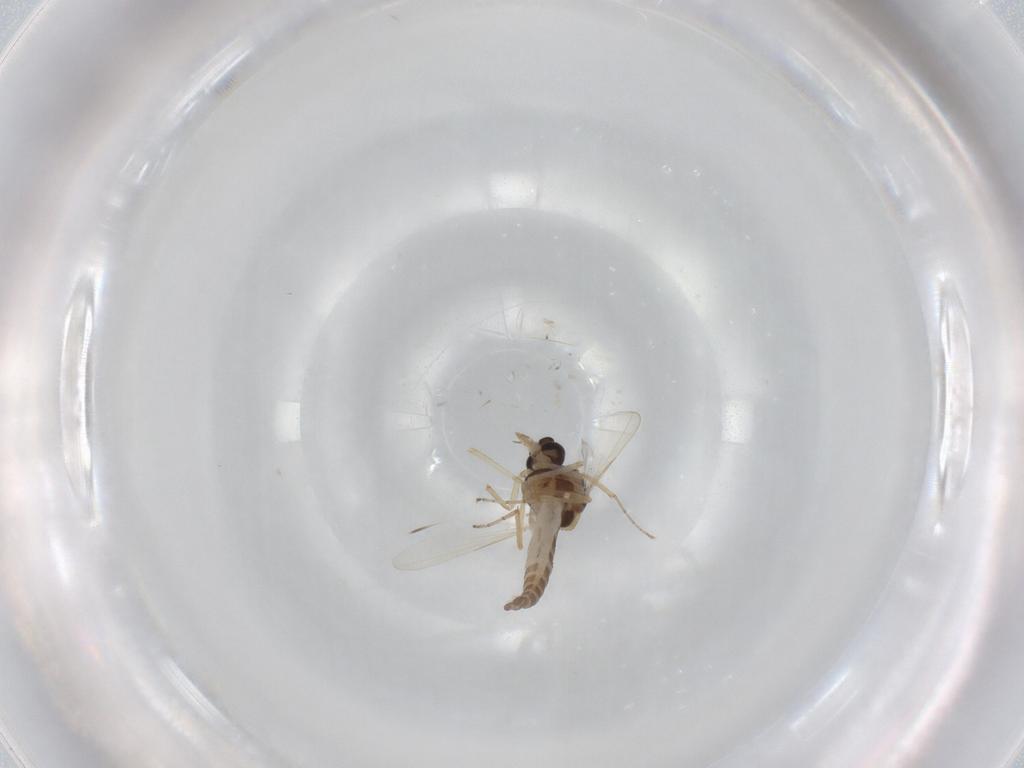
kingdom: Animalia
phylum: Arthropoda
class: Insecta
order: Diptera
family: Ceratopogonidae
